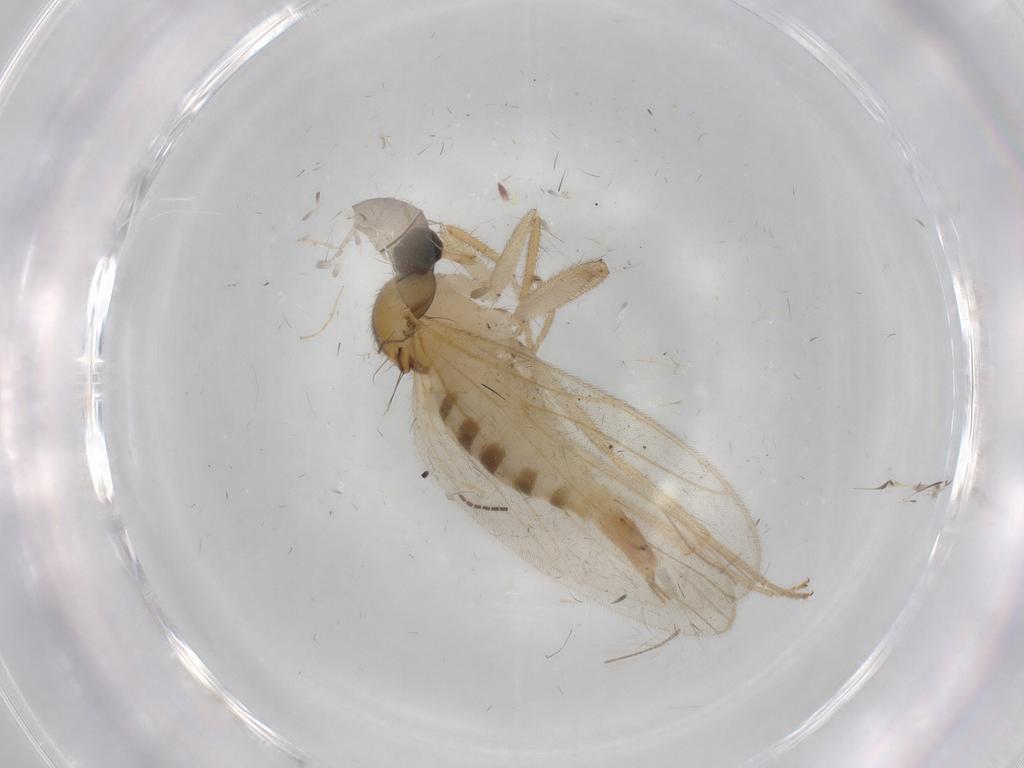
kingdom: Animalia
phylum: Arthropoda
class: Insecta
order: Diptera
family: Hybotidae
